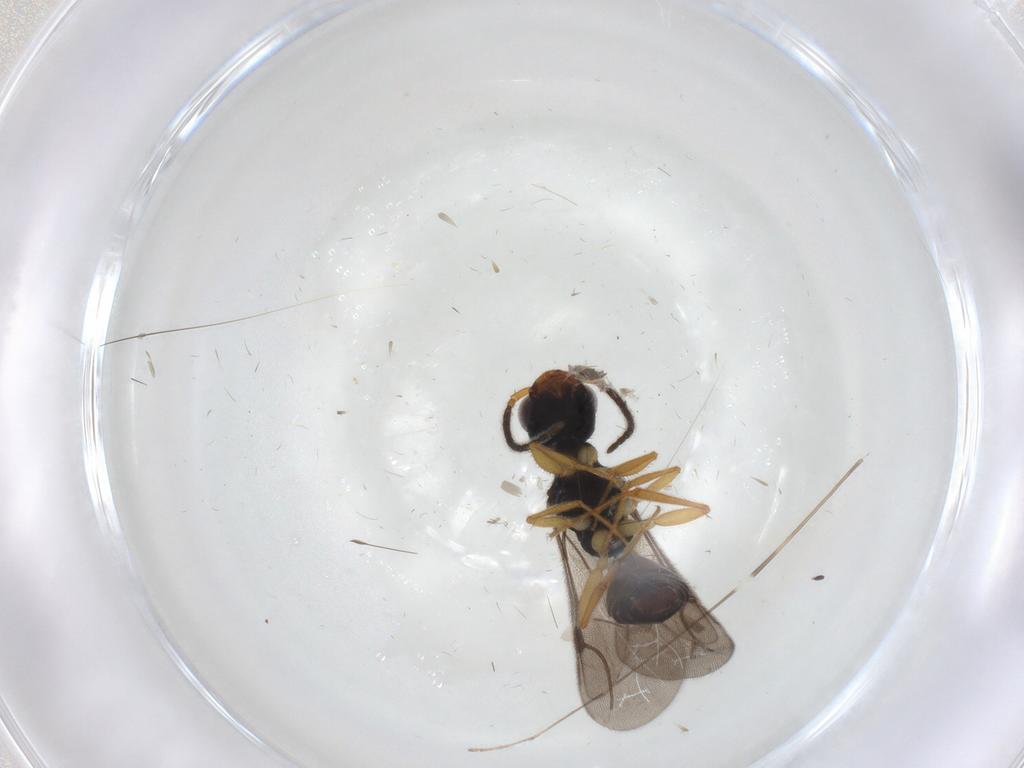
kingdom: Animalia
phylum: Arthropoda
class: Insecta
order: Hymenoptera
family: Bethylidae
